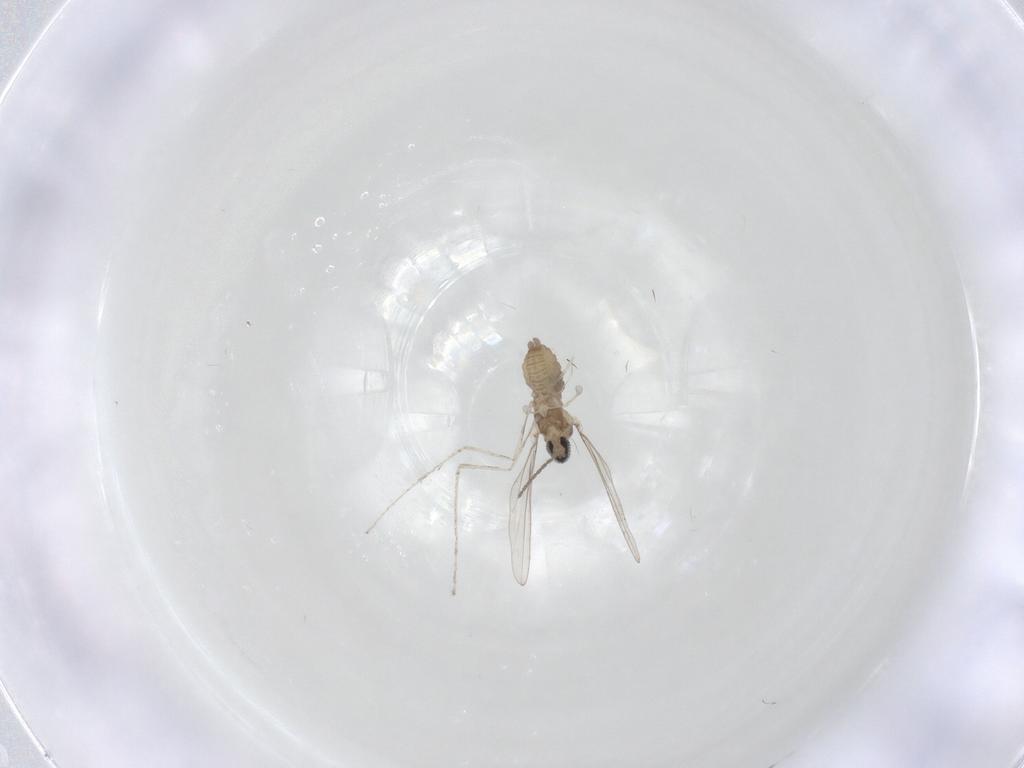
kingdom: Animalia
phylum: Arthropoda
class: Insecta
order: Diptera
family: Cecidomyiidae
